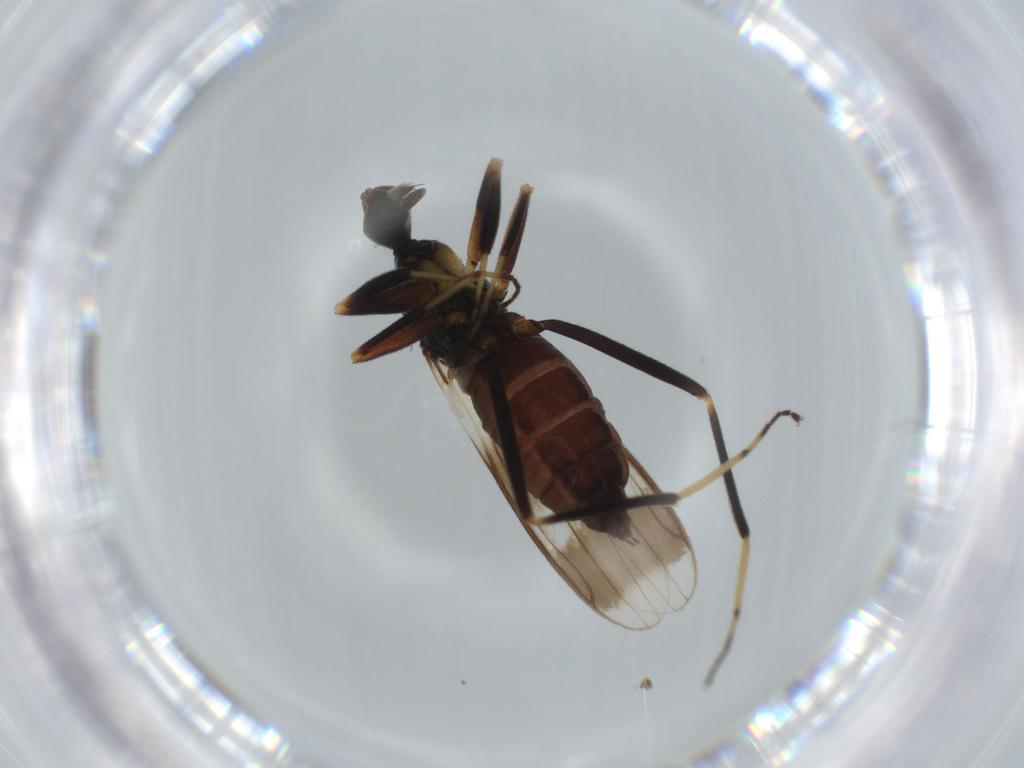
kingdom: Animalia
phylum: Arthropoda
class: Insecta
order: Diptera
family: Hybotidae
